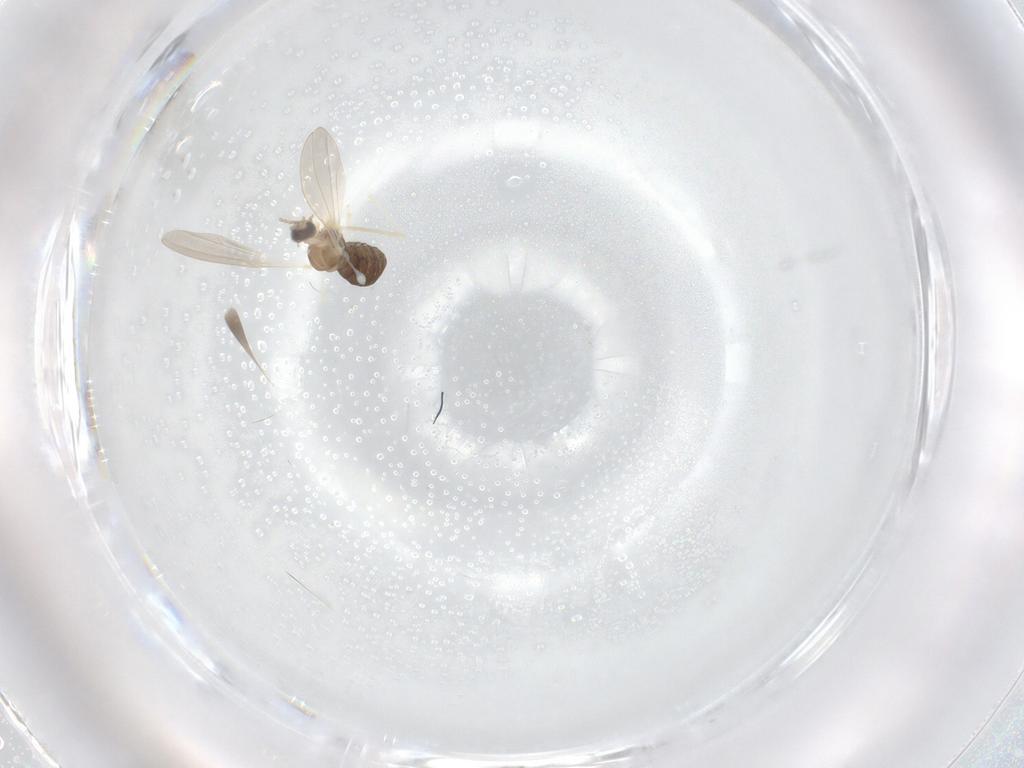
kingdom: Animalia
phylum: Arthropoda
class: Insecta
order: Diptera
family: Cecidomyiidae
